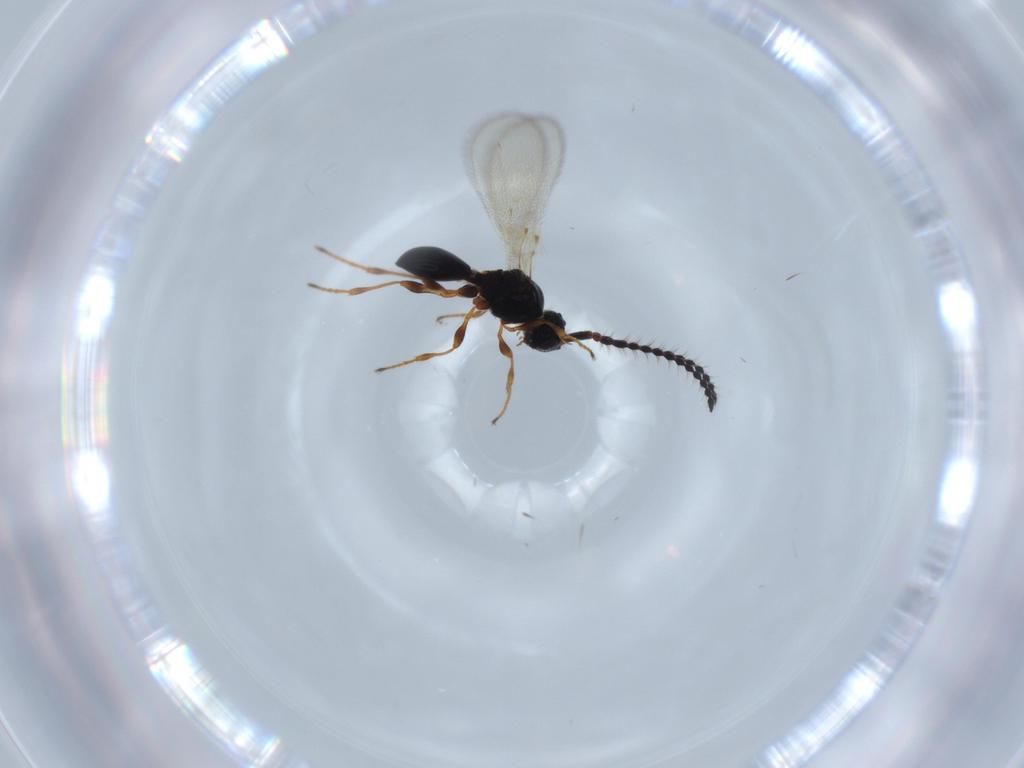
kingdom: Animalia
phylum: Arthropoda
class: Insecta
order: Hymenoptera
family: Diapriidae
